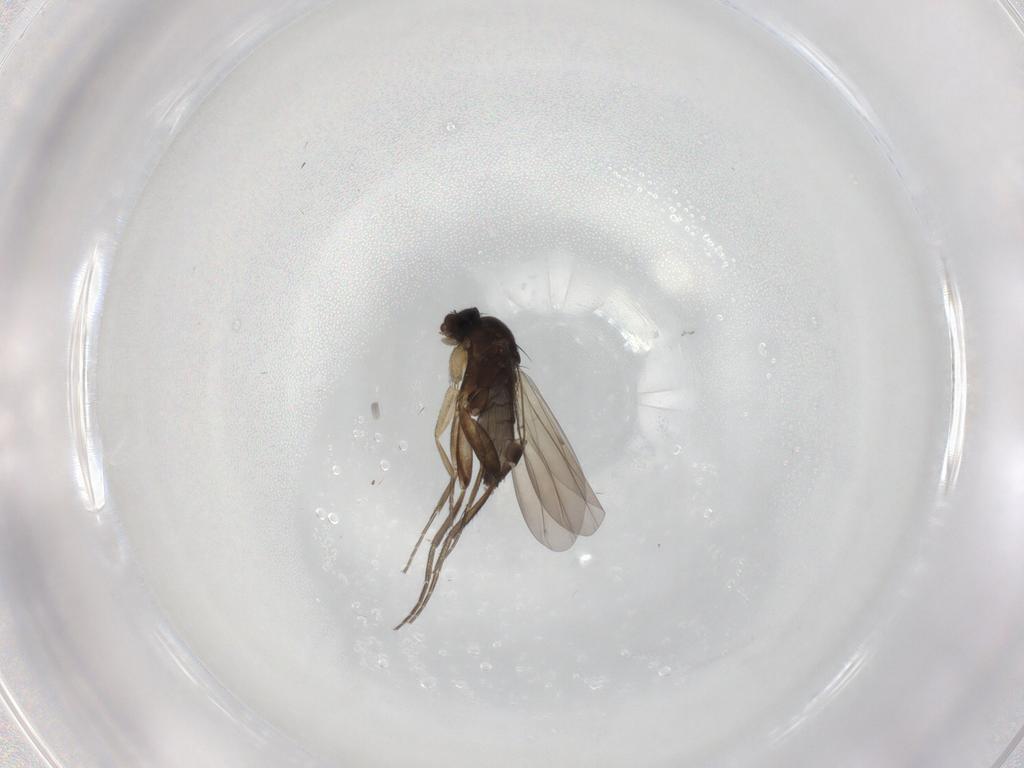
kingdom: Animalia
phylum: Arthropoda
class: Insecta
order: Diptera
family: Phoridae
